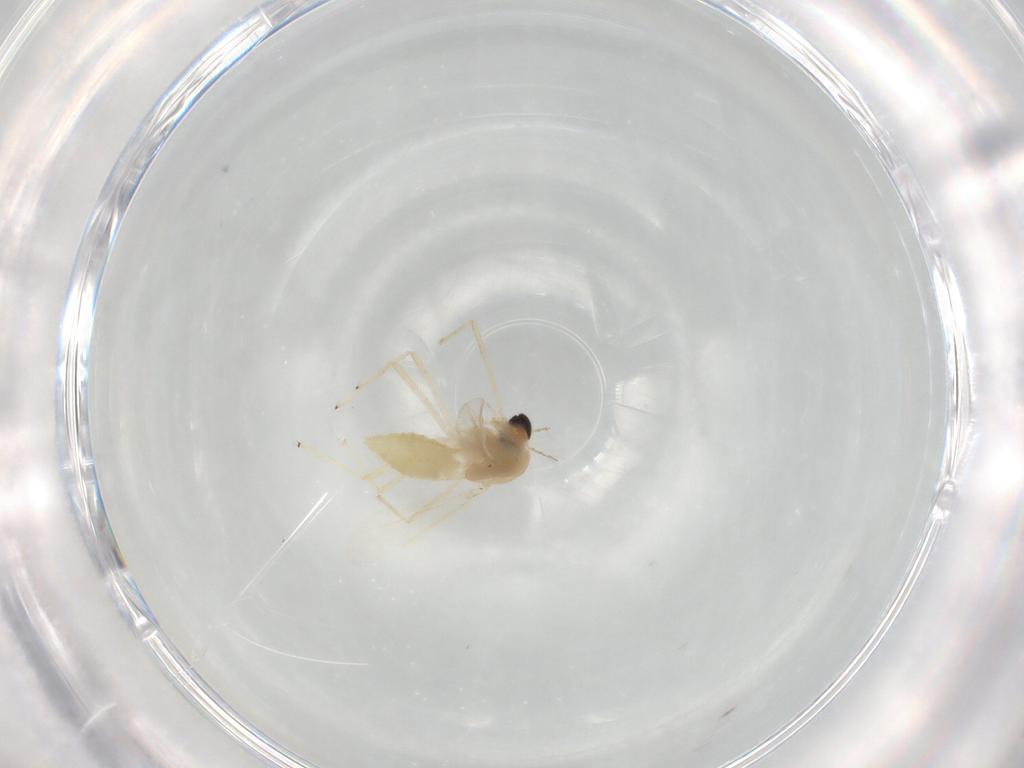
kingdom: Animalia
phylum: Arthropoda
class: Insecta
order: Diptera
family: Chironomidae
